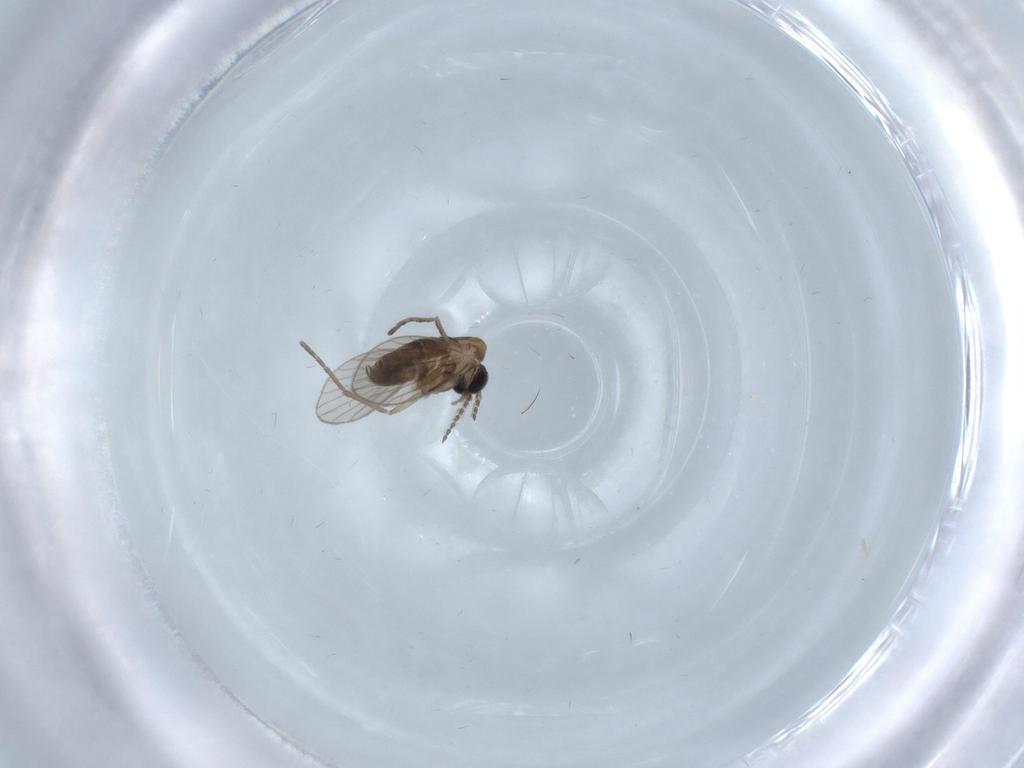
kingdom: Animalia
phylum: Arthropoda
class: Insecta
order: Diptera
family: Psychodidae
